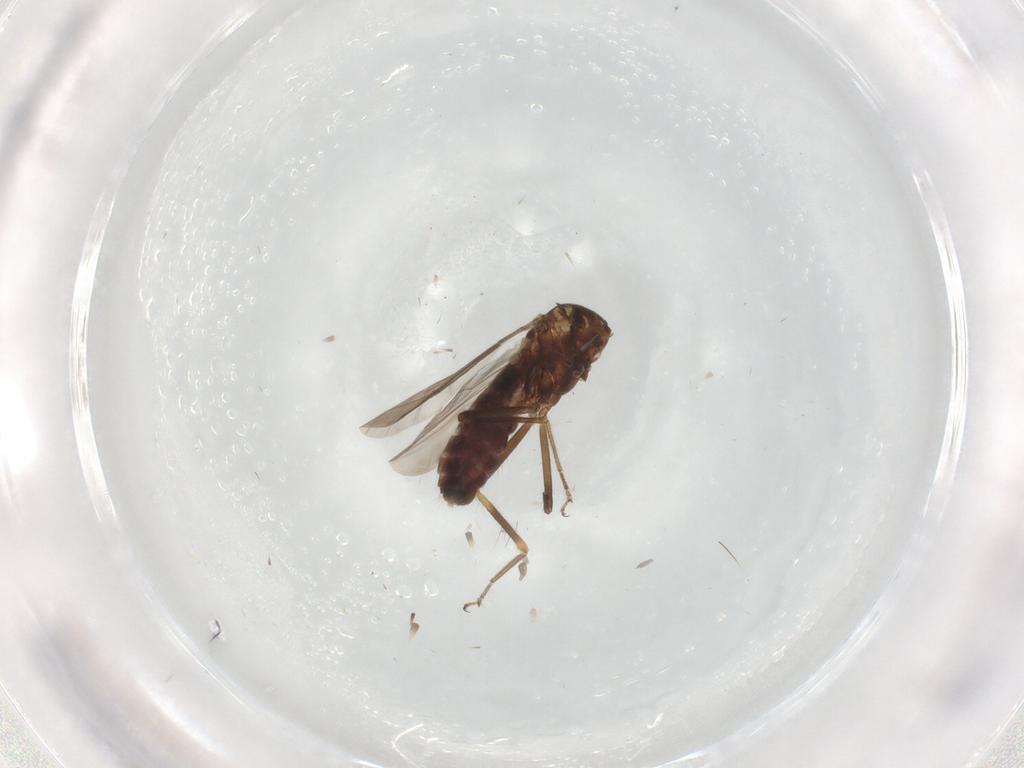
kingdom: Animalia
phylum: Arthropoda
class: Insecta
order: Diptera
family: Ceratopogonidae
